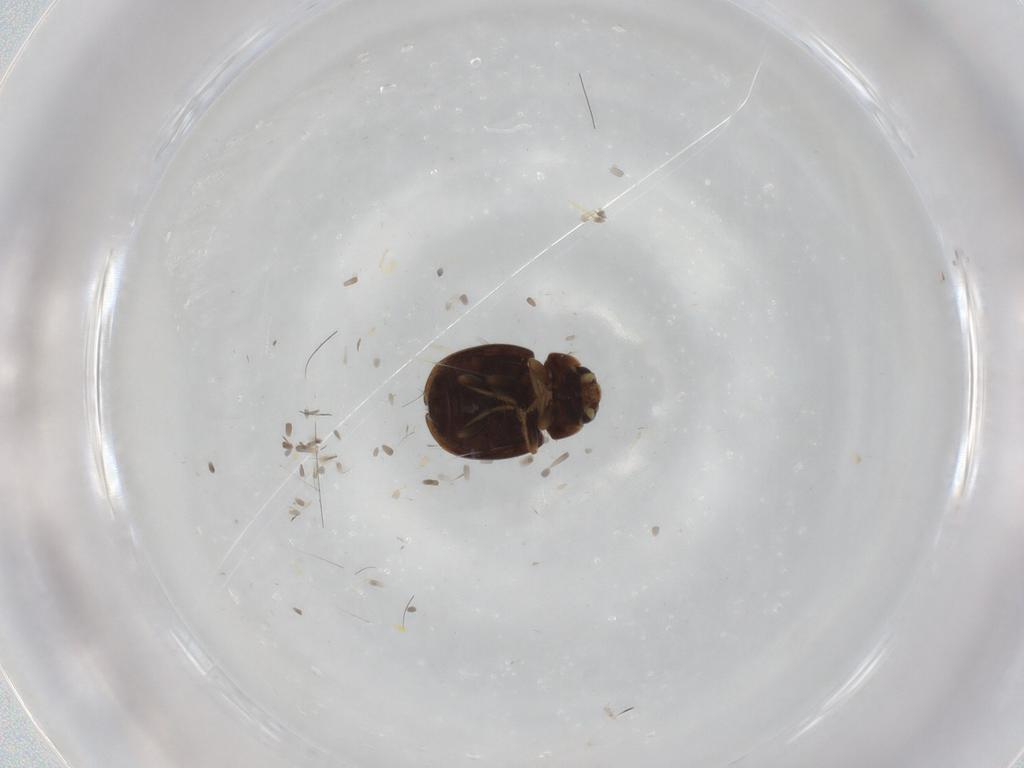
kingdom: Animalia
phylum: Arthropoda
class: Insecta
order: Coleoptera
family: Coccinellidae
